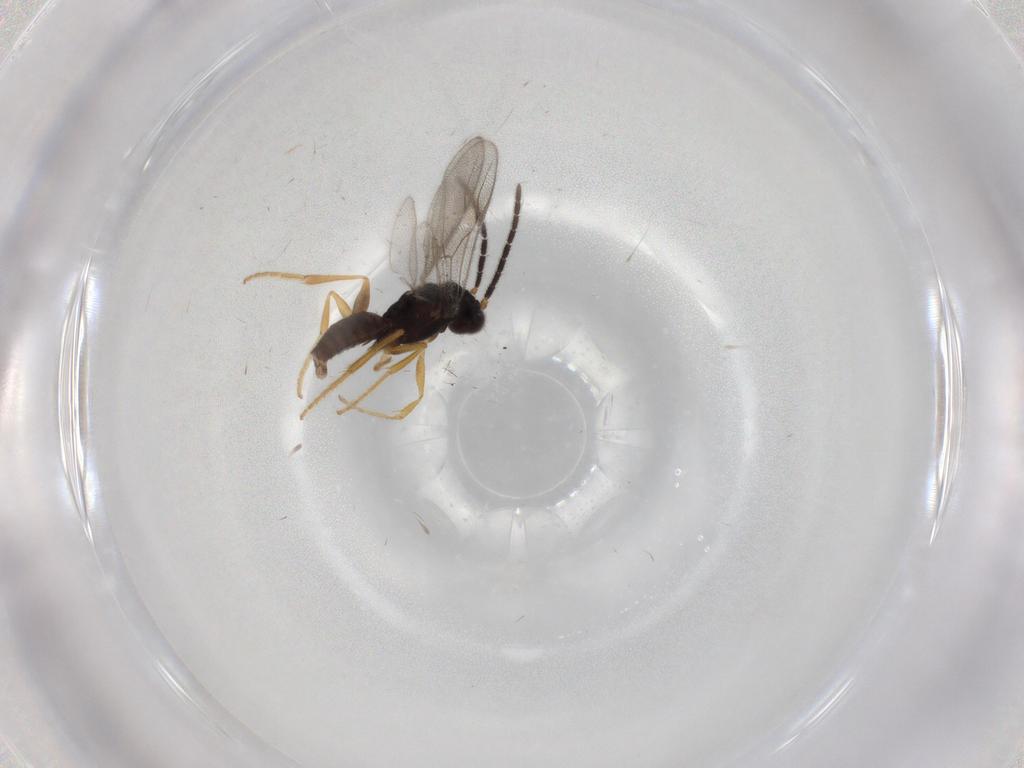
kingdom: Animalia
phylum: Arthropoda
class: Insecta
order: Hymenoptera
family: Dryinidae
